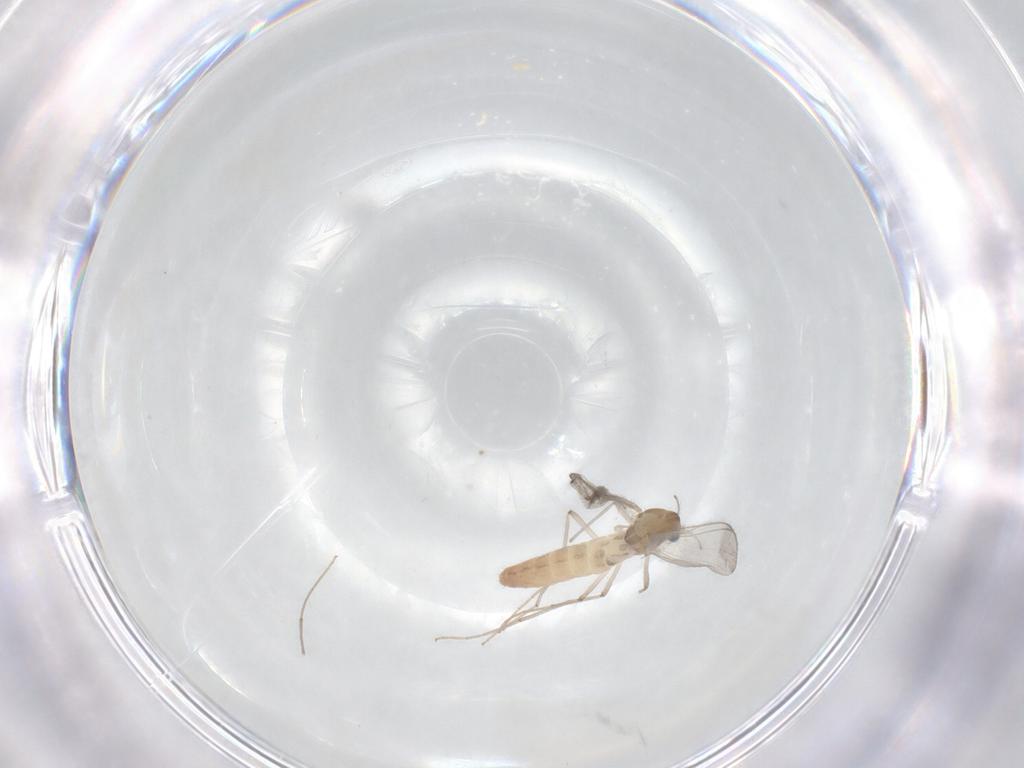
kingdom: Animalia
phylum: Arthropoda
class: Insecta
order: Diptera
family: Chironomidae
